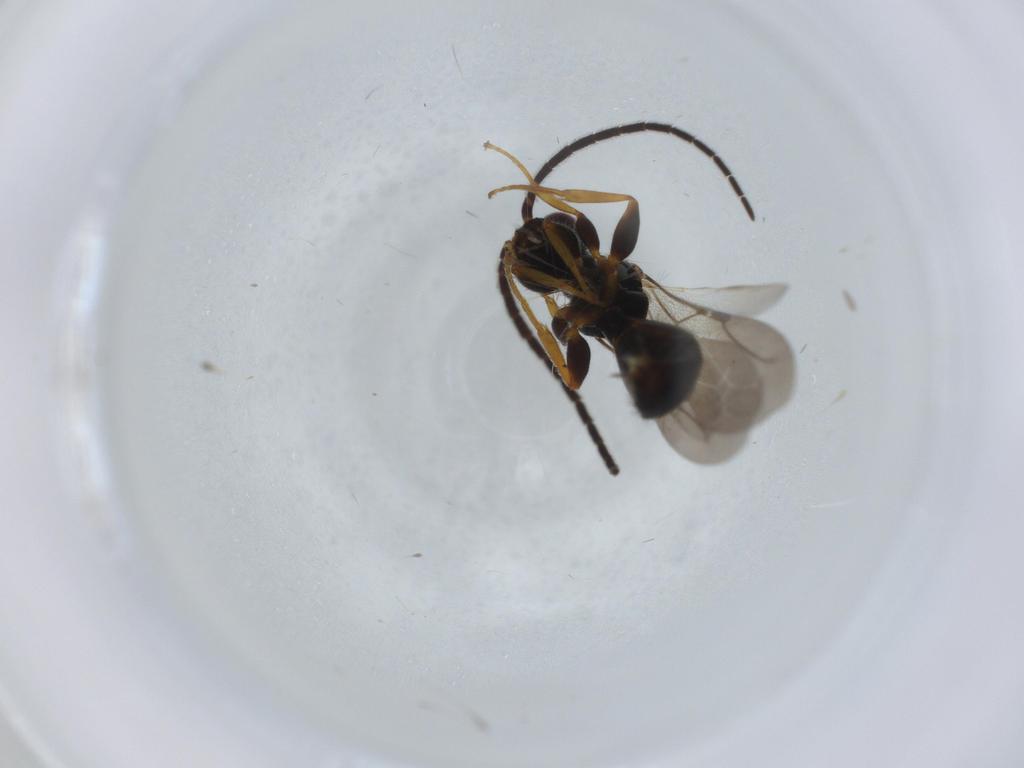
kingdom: Animalia
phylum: Arthropoda
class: Insecta
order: Hymenoptera
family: Bethylidae
